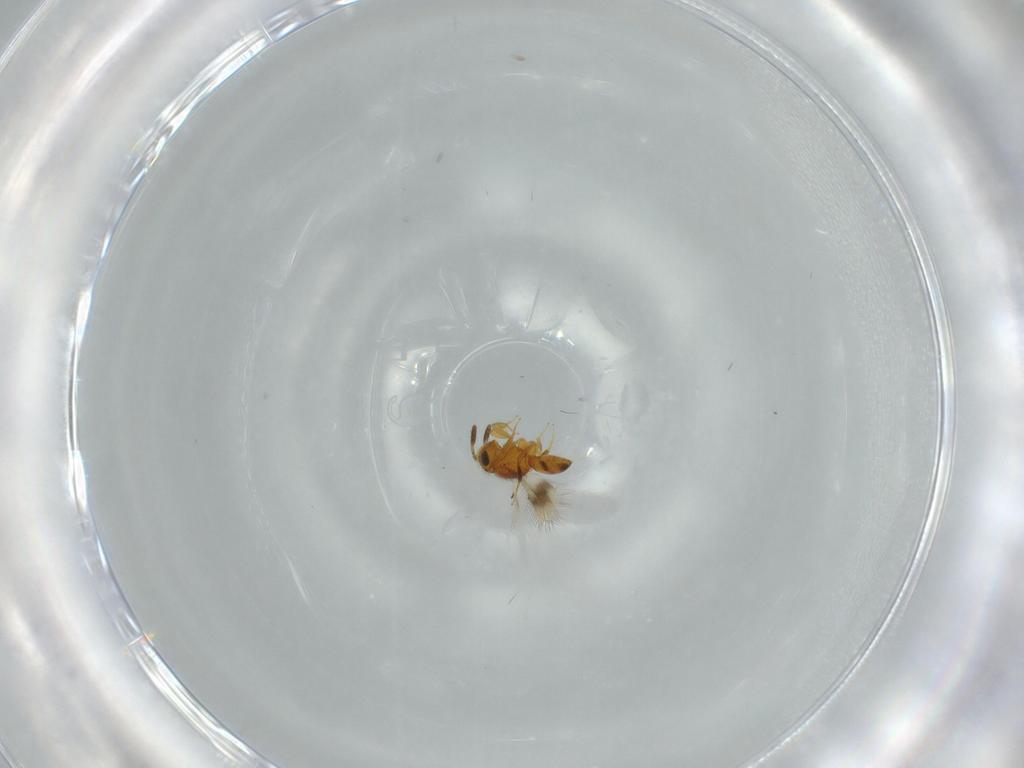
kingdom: Animalia
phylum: Arthropoda
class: Insecta
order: Hymenoptera
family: Scelionidae
